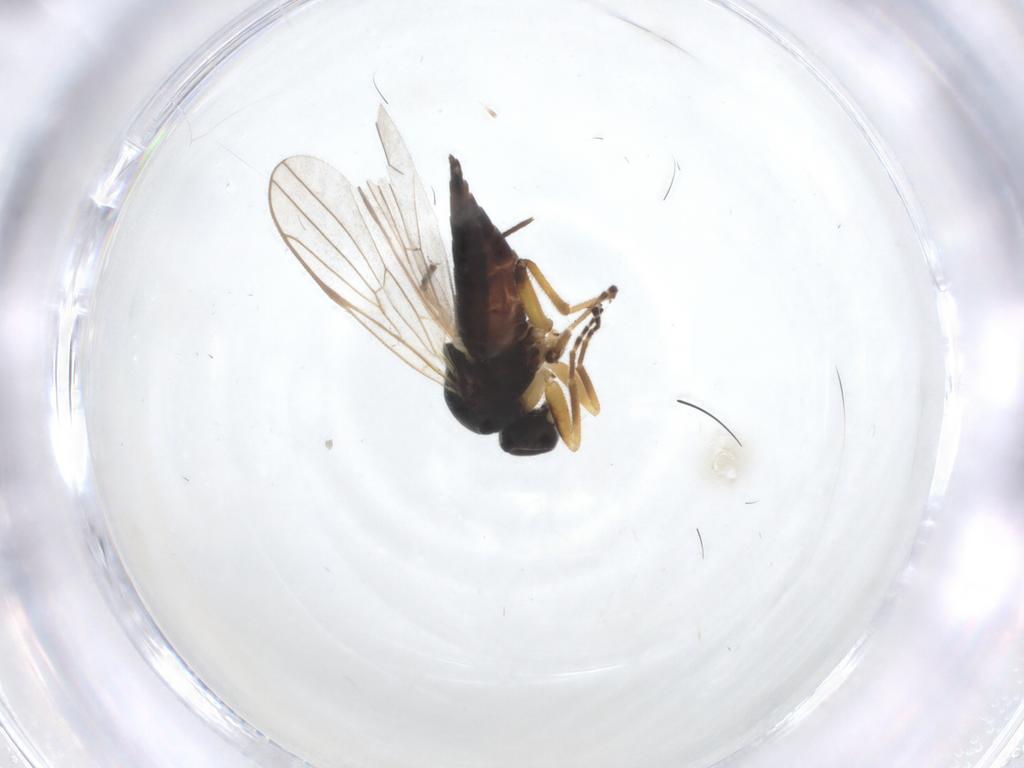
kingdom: Animalia
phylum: Arthropoda
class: Insecta
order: Diptera
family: Hybotidae
